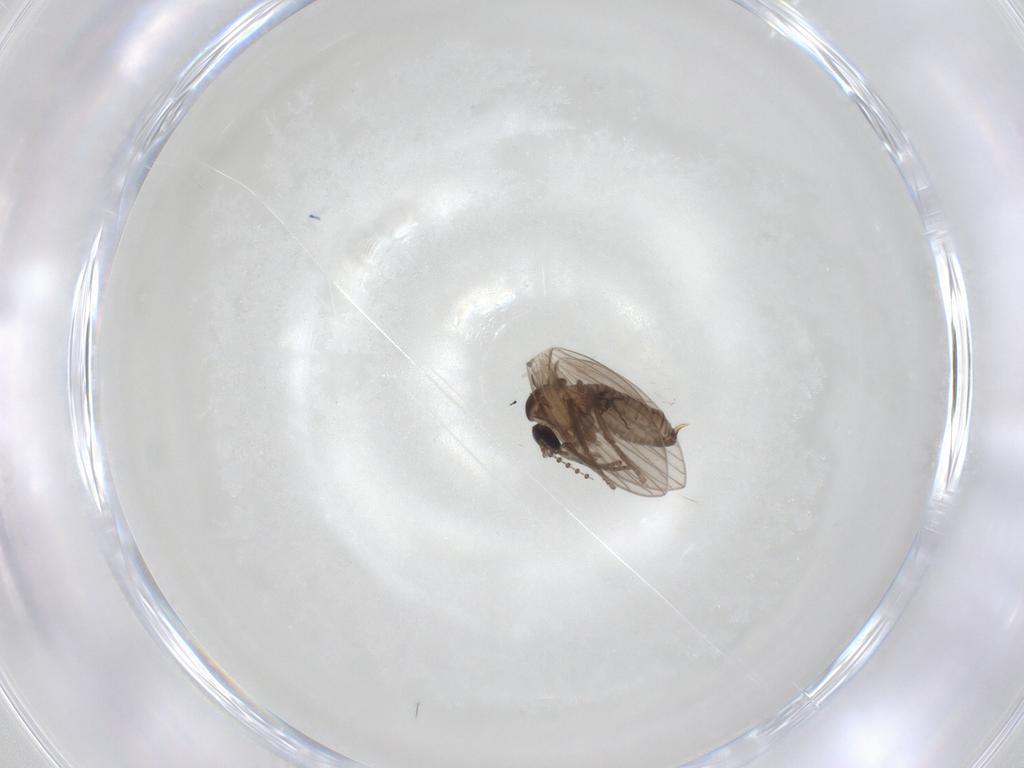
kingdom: Animalia
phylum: Arthropoda
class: Insecta
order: Diptera
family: Psychodidae
